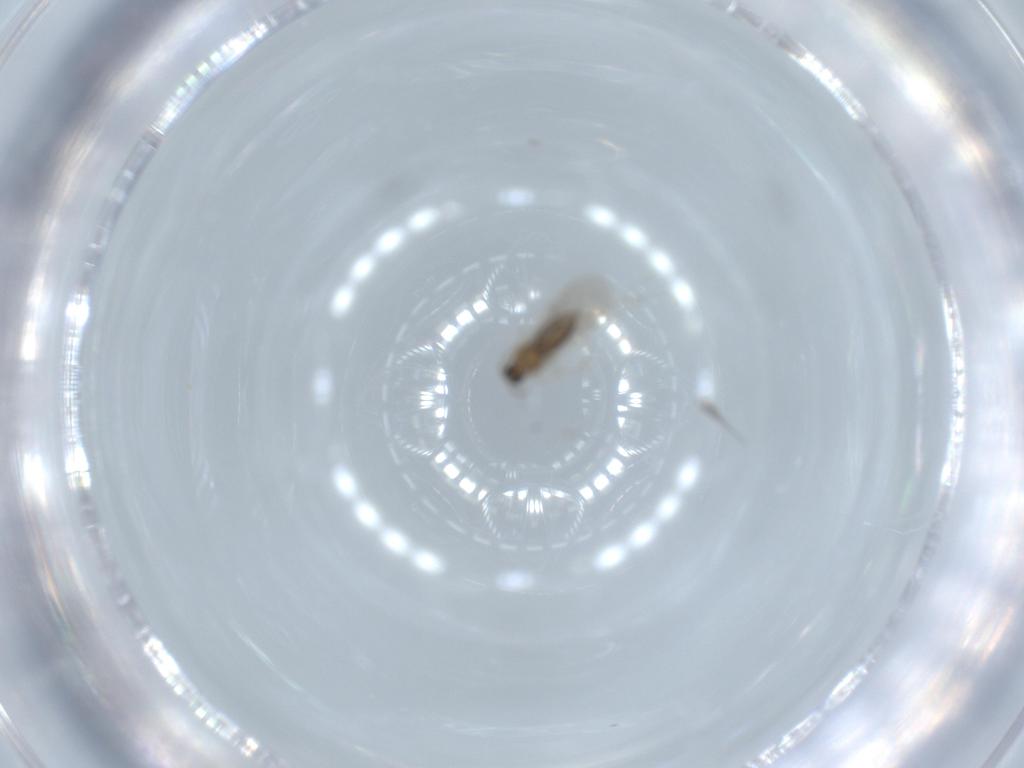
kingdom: Animalia
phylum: Arthropoda
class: Insecta
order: Diptera
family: Cecidomyiidae
